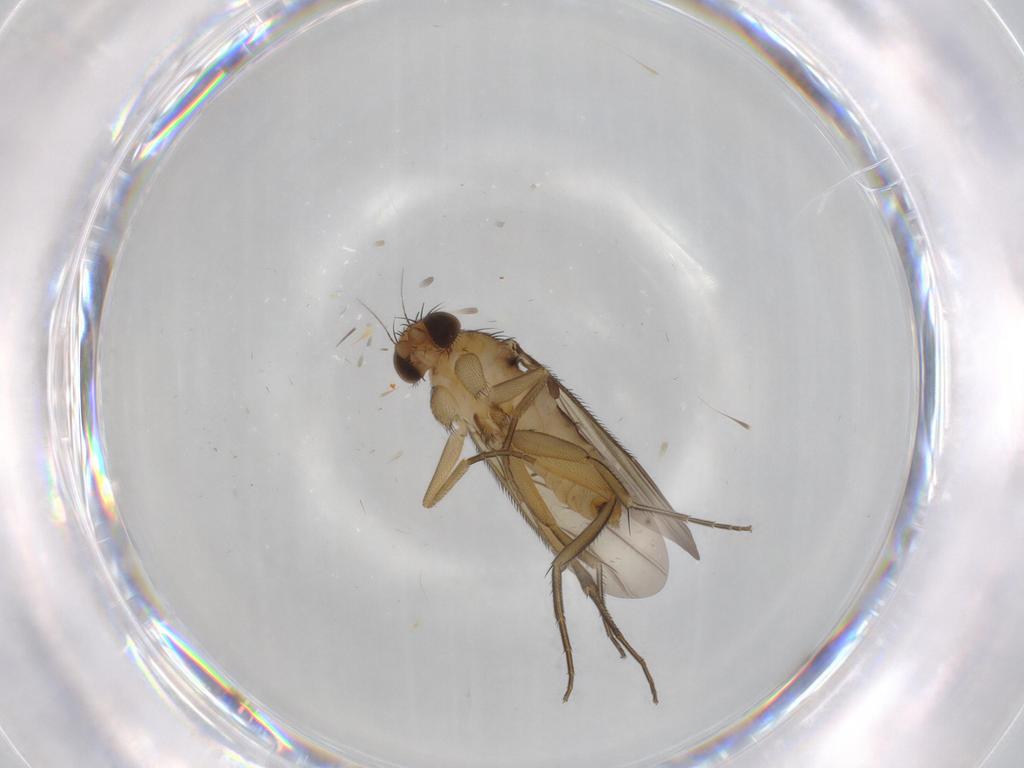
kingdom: Animalia
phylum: Arthropoda
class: Insecta
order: Diptera
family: Phoridae
